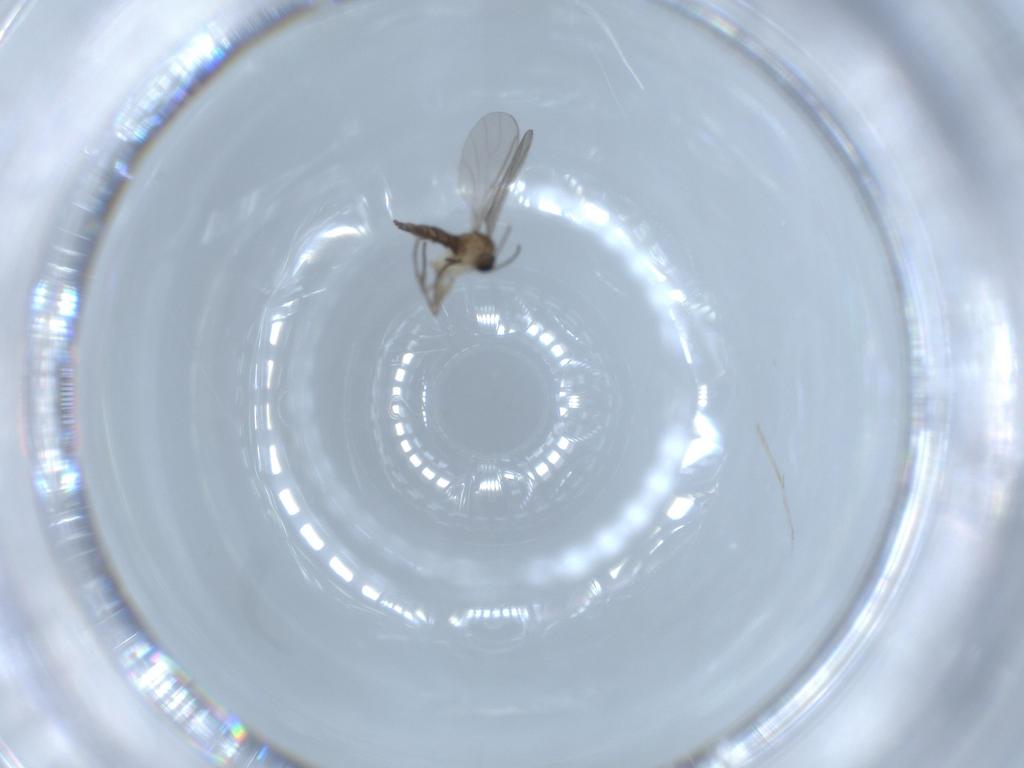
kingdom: Animalia
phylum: Arthropoda
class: Insecta
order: Diptera
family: Sciaridae
